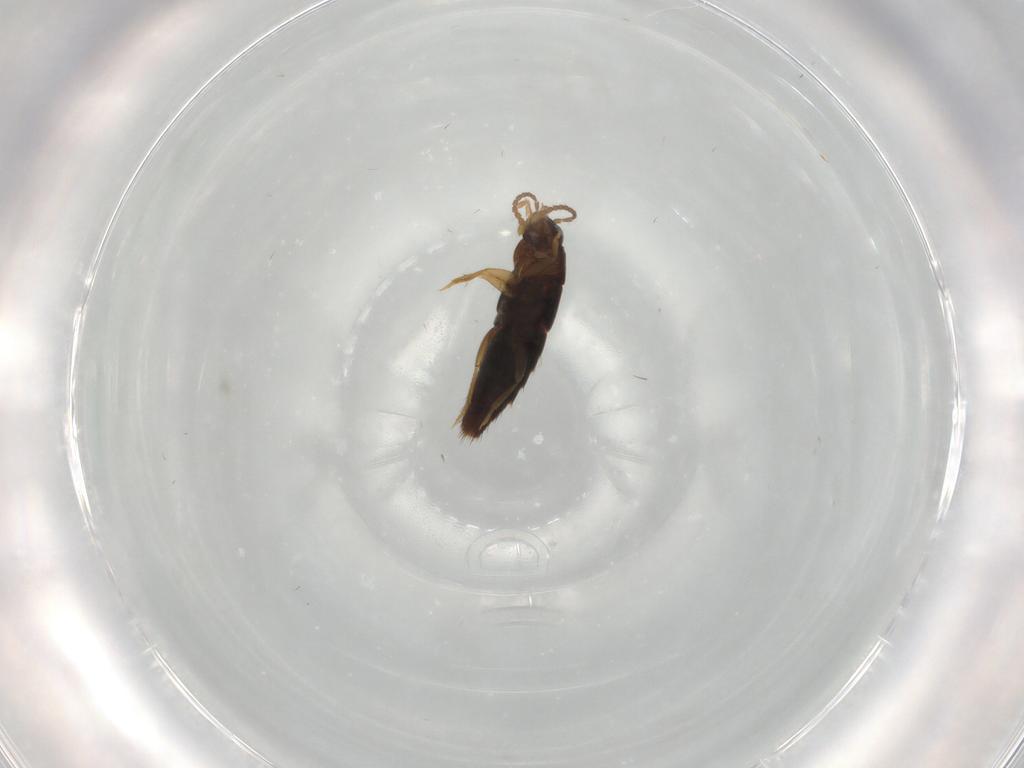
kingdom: Animalia
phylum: Arthropoda
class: Insecta
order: Coleoptera
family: Staphylinidae
